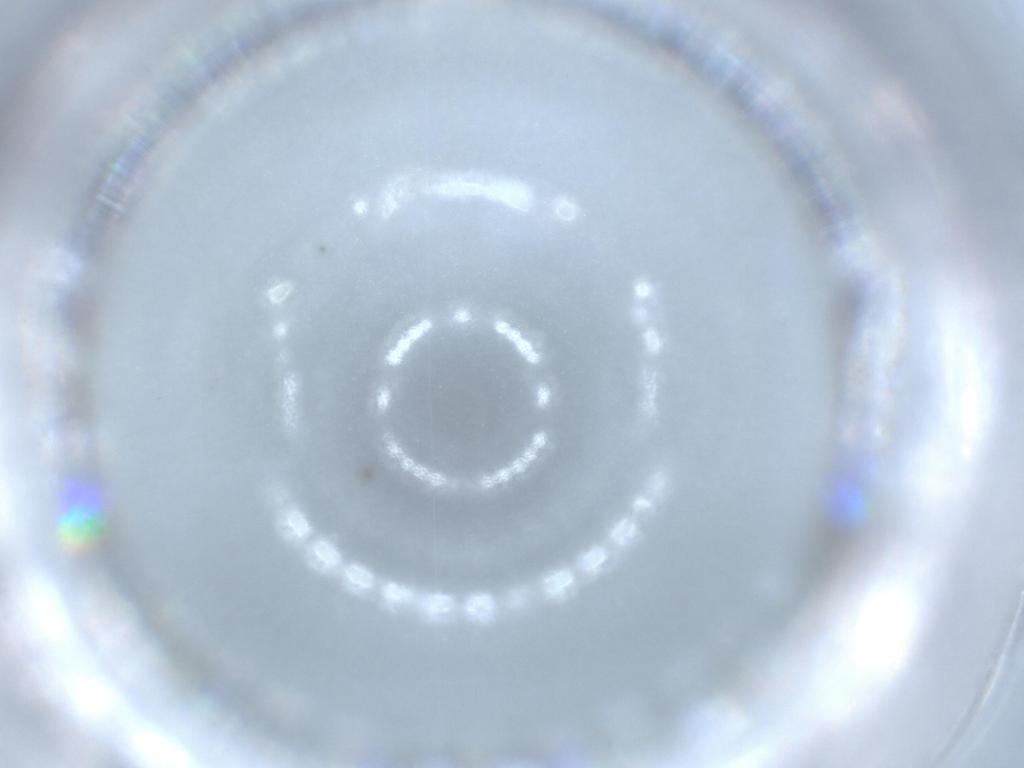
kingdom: Animalia
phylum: Arthropoda
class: Insecta
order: Diptera
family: Chironomidae
